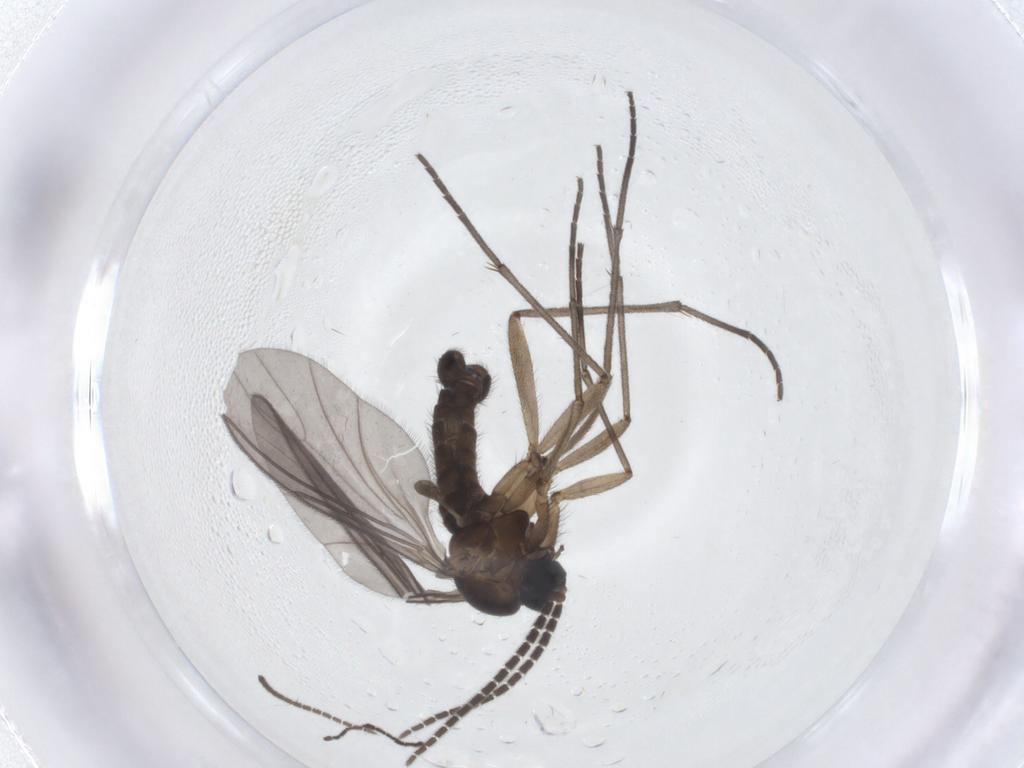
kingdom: Animalia
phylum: Arthropoda
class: Insecta
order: Diptera
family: Sciaridae
